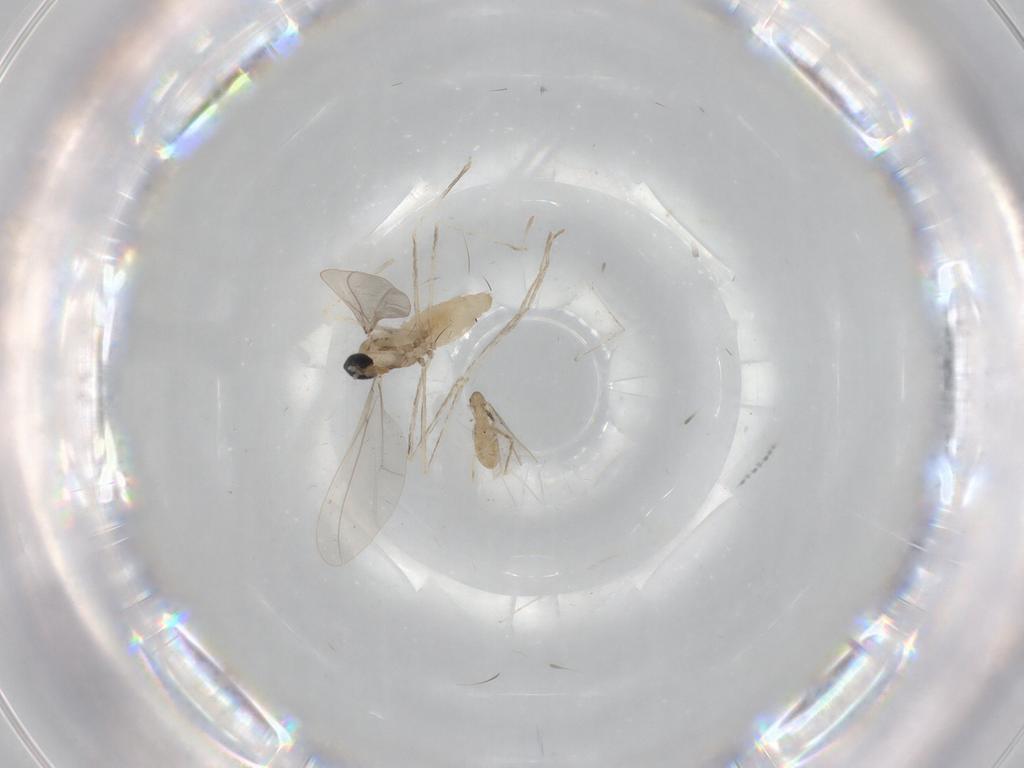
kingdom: Animalia
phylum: Arthropoda
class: Insecta
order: Diptera
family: Cecidomyiidae
